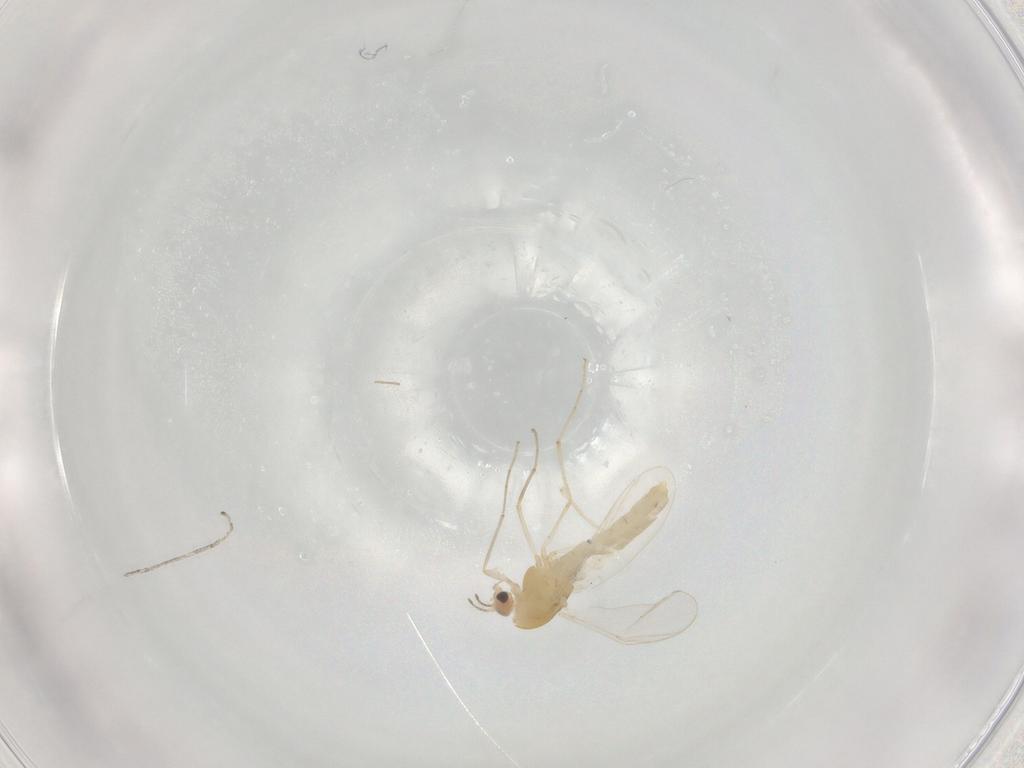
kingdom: Animalia
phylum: Arthropoda
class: Insecta
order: Diptera
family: Chironomidae
